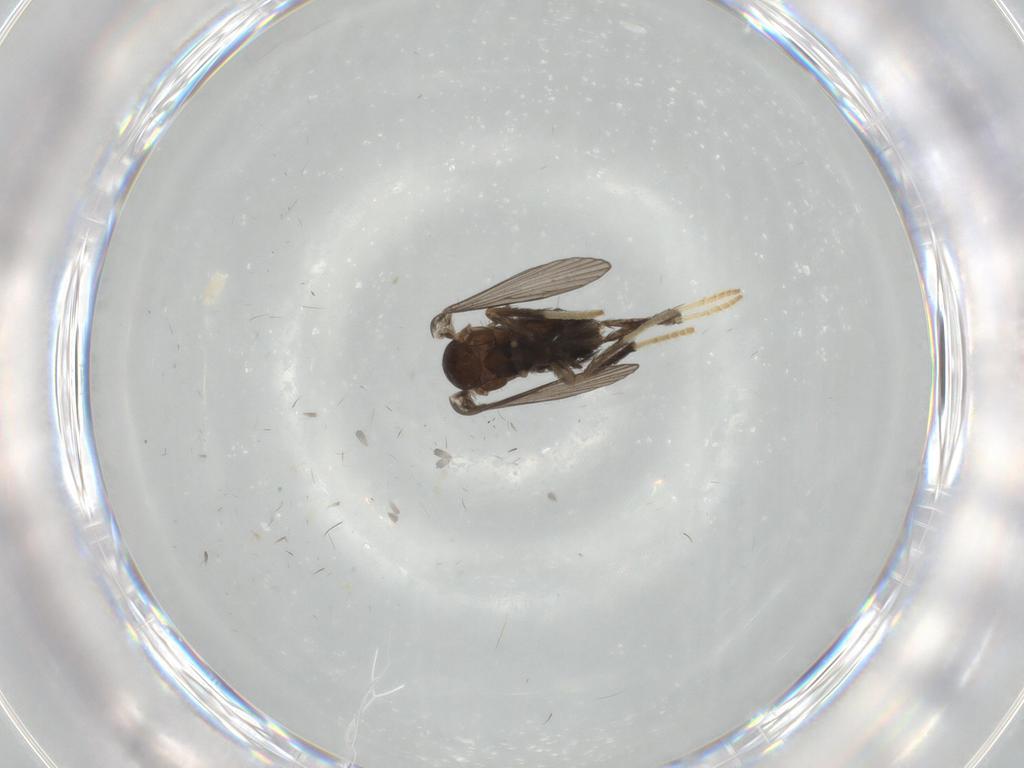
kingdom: Animalia
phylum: Arthropoda
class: Insecta
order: Diptera
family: Psychodidae
